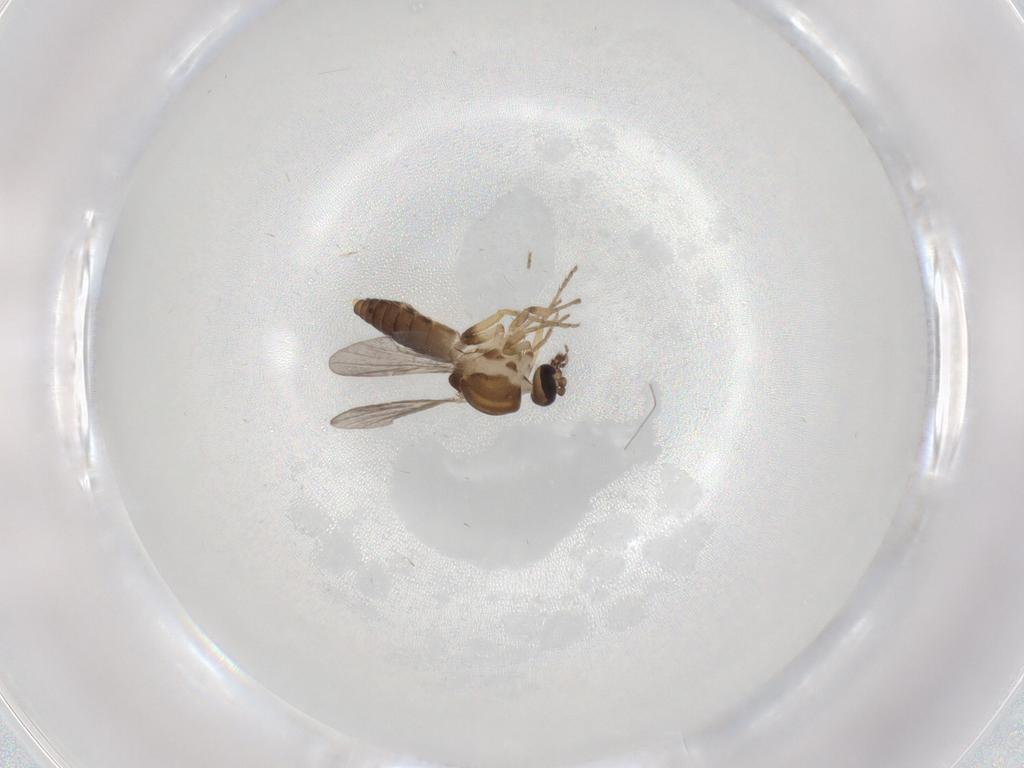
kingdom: Animalia
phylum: Arthropoda
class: Insecta
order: Diptera
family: Ceratopogonidae
